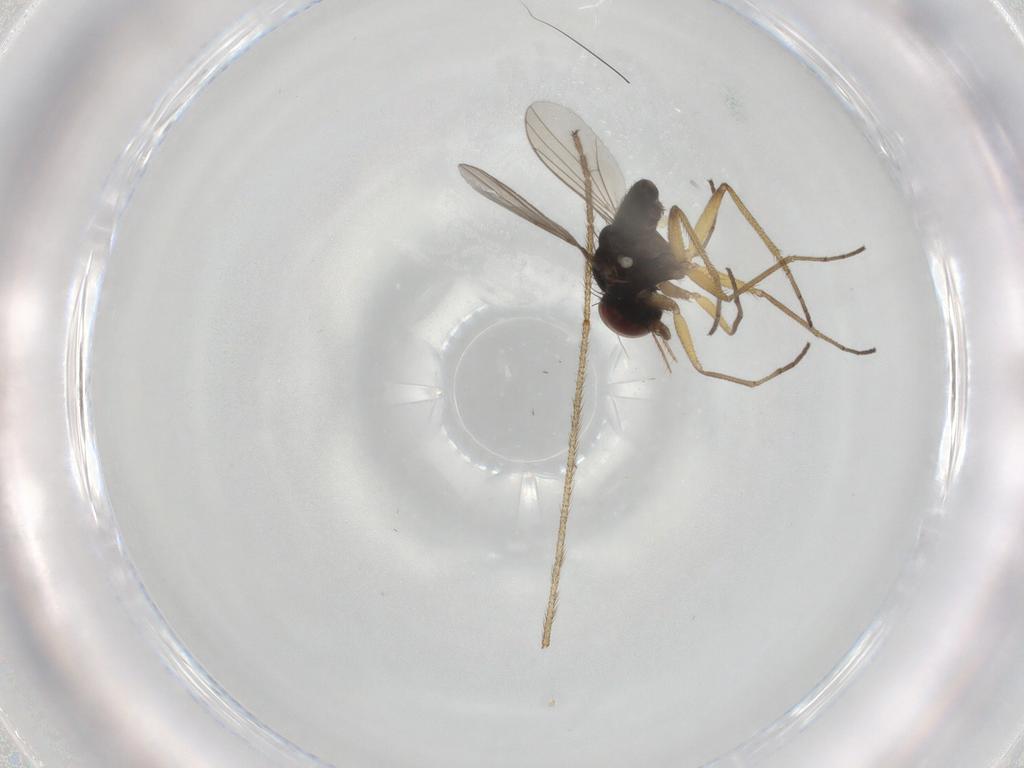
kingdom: Animalia
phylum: Arthropoda
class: Insecta
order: Diptera
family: Dolichopodidae
